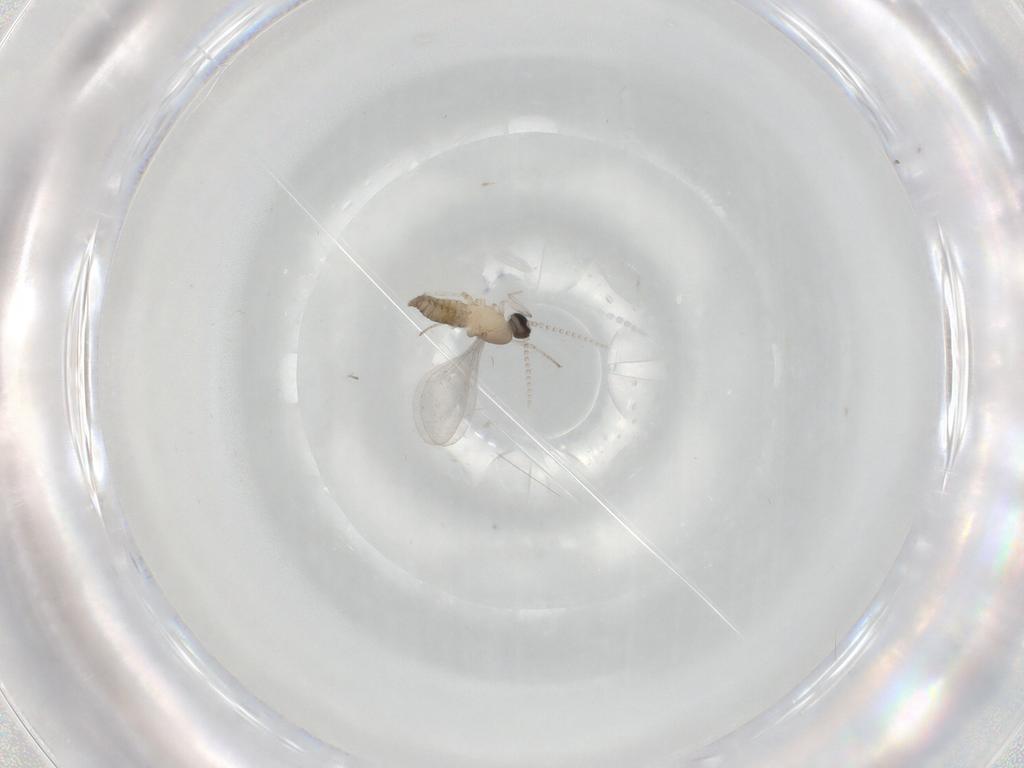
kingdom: Animalia
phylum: Arthropoda
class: Insecta
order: Diptera
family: Cecidomyiidae
